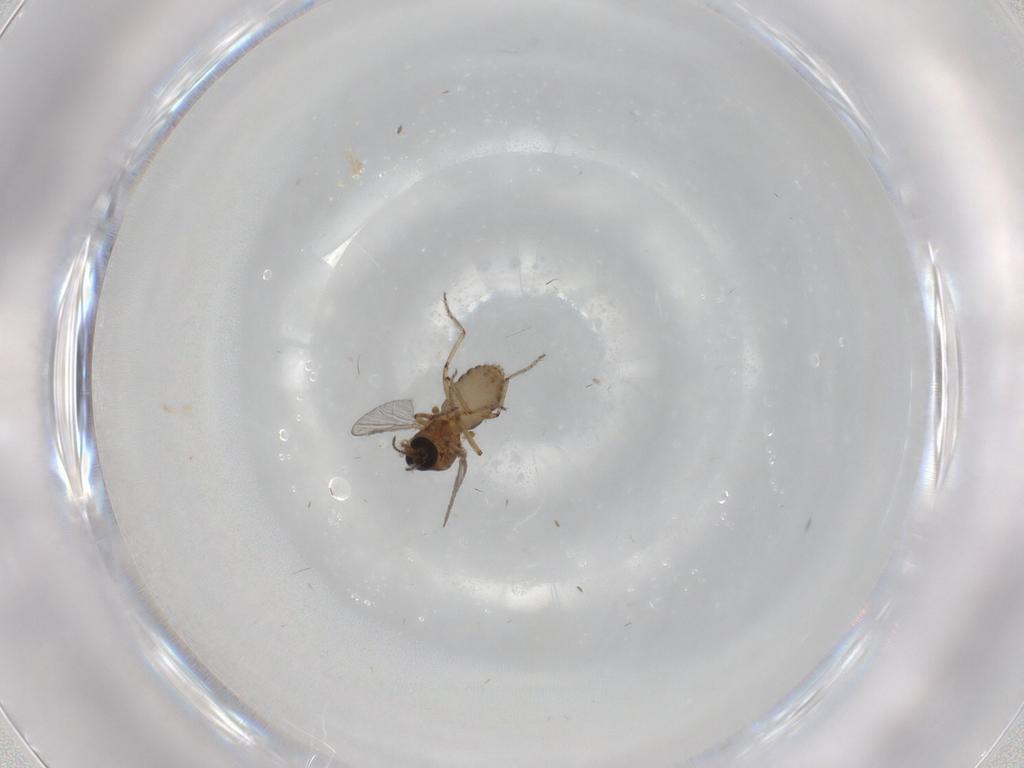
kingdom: Animalia
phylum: Arthropoda
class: Insecta
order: Diptera
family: Ceratopogonidae
